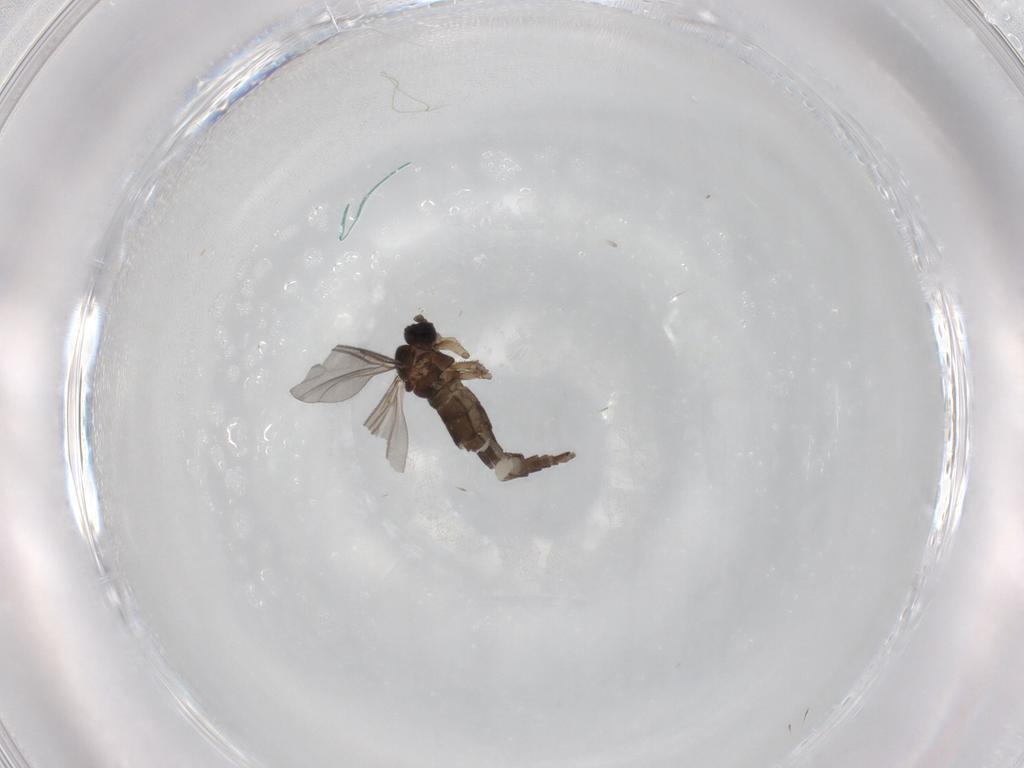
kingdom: Animalia
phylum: Arthropoda
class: Insecta
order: Diptera
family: Sciaridae
